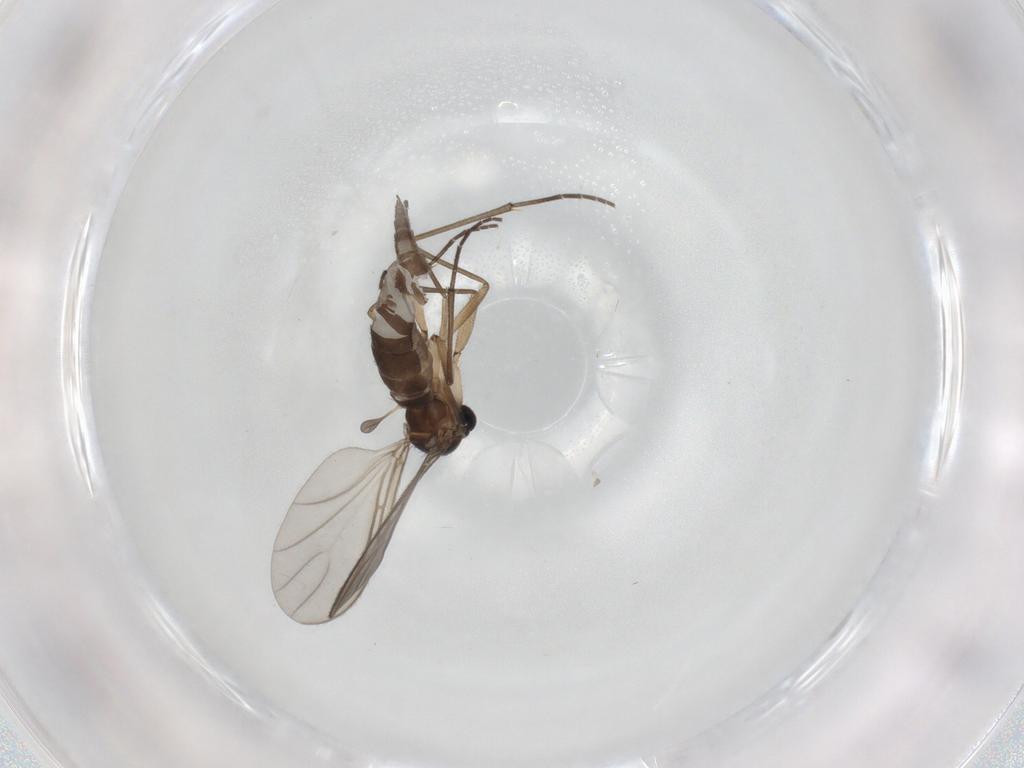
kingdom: Animalia
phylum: Arthropoda
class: Insecta
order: Diptera
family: Sciaridae
